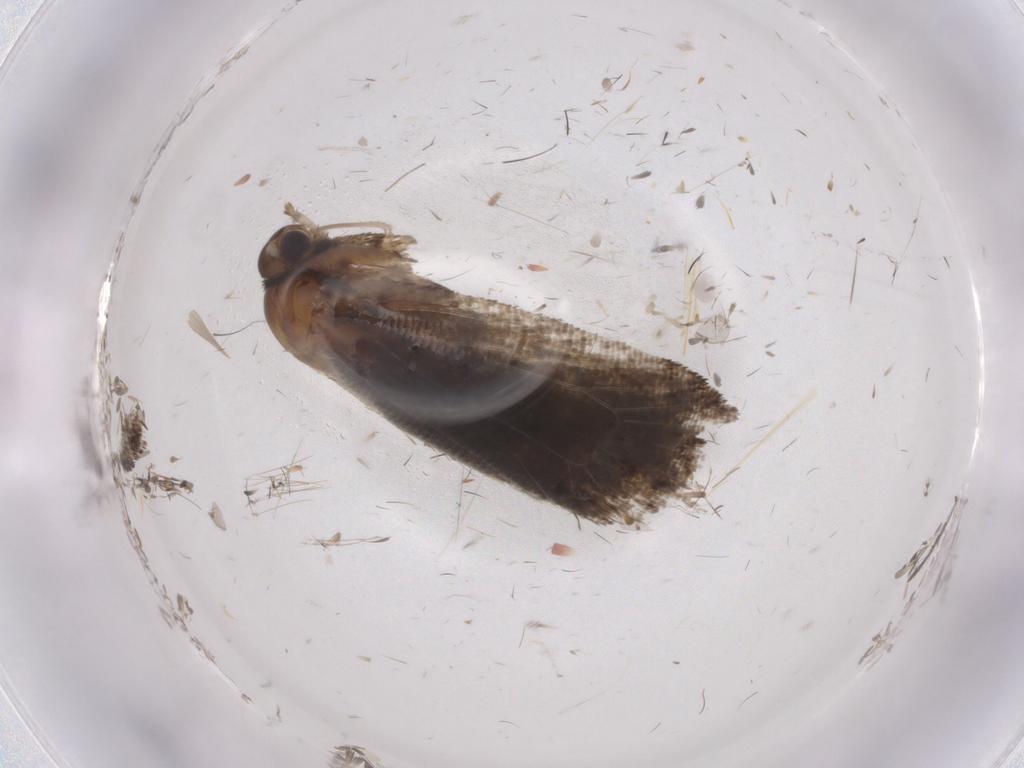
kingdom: Animalia
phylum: Arthropoda
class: Insecta
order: Lepidoptera
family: Tortricidae
